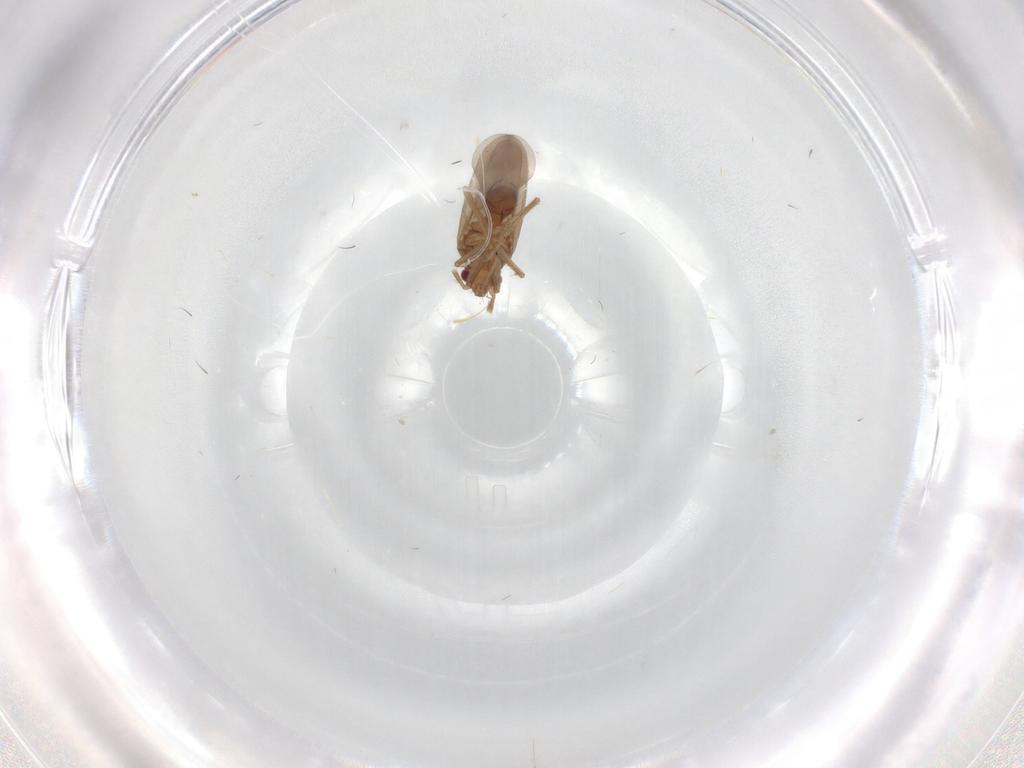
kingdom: Animalia
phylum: Arthropoda
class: Insecta
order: Hemiptera
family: Ceratocombidae
